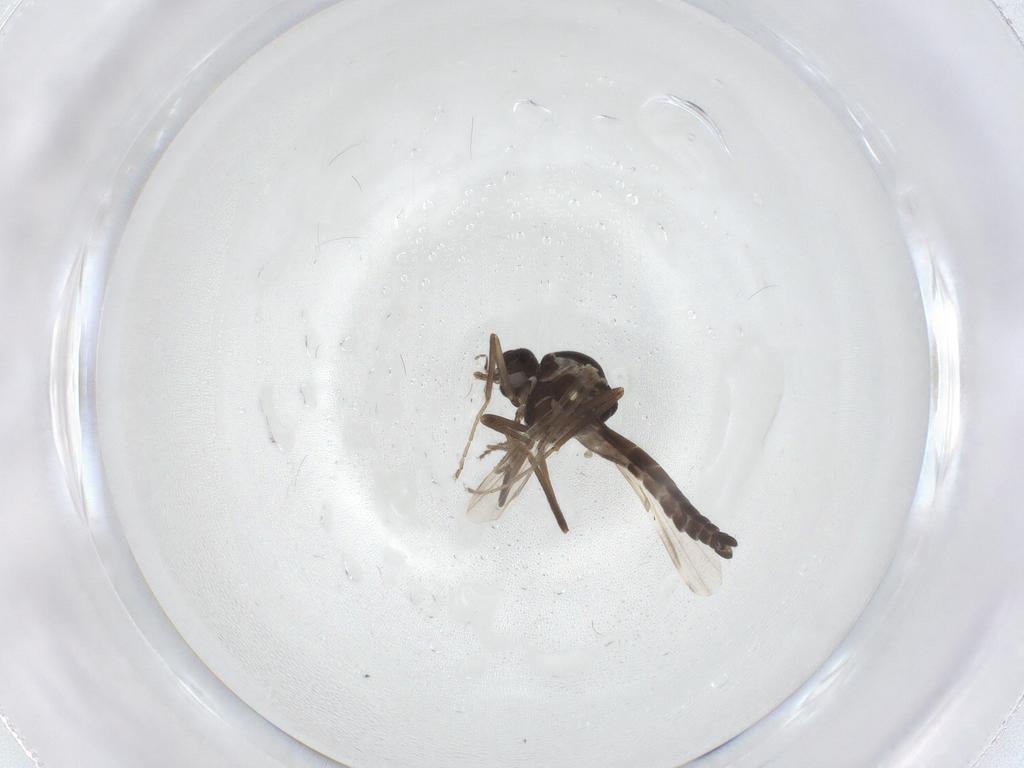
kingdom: Animalia
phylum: Arthropoda
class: Insecta
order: Diptera
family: Ceratopogonidae
